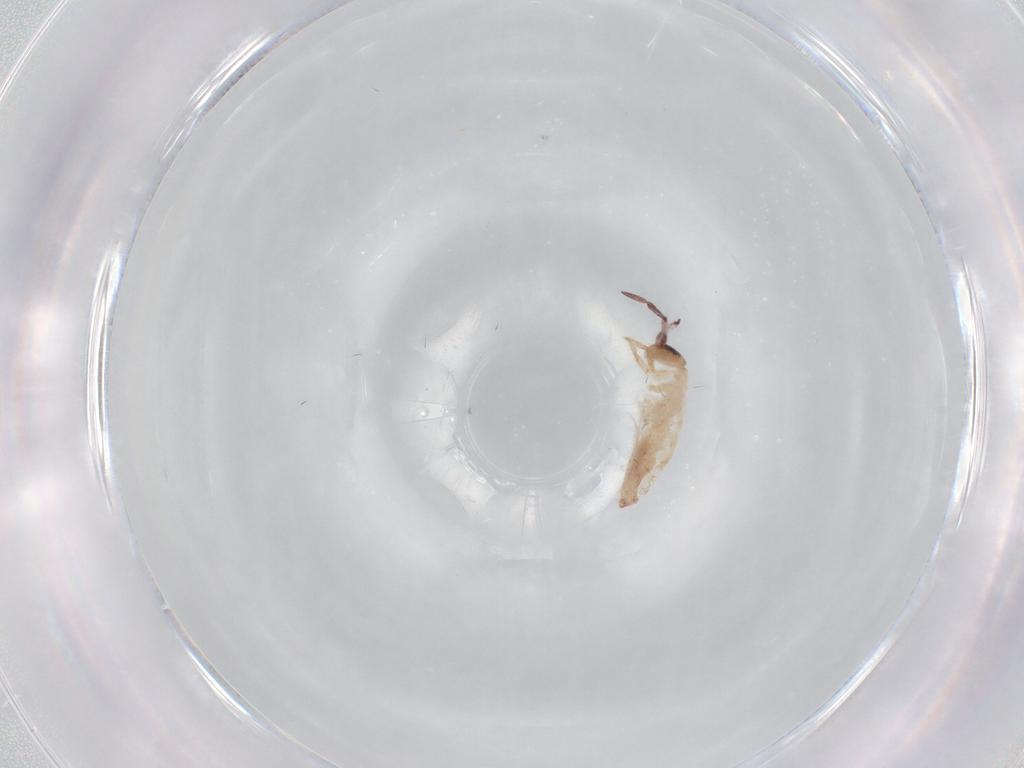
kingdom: Animalia
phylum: Arthropoda
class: Collembola
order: Entomobryomorpha
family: Entomobryidae
